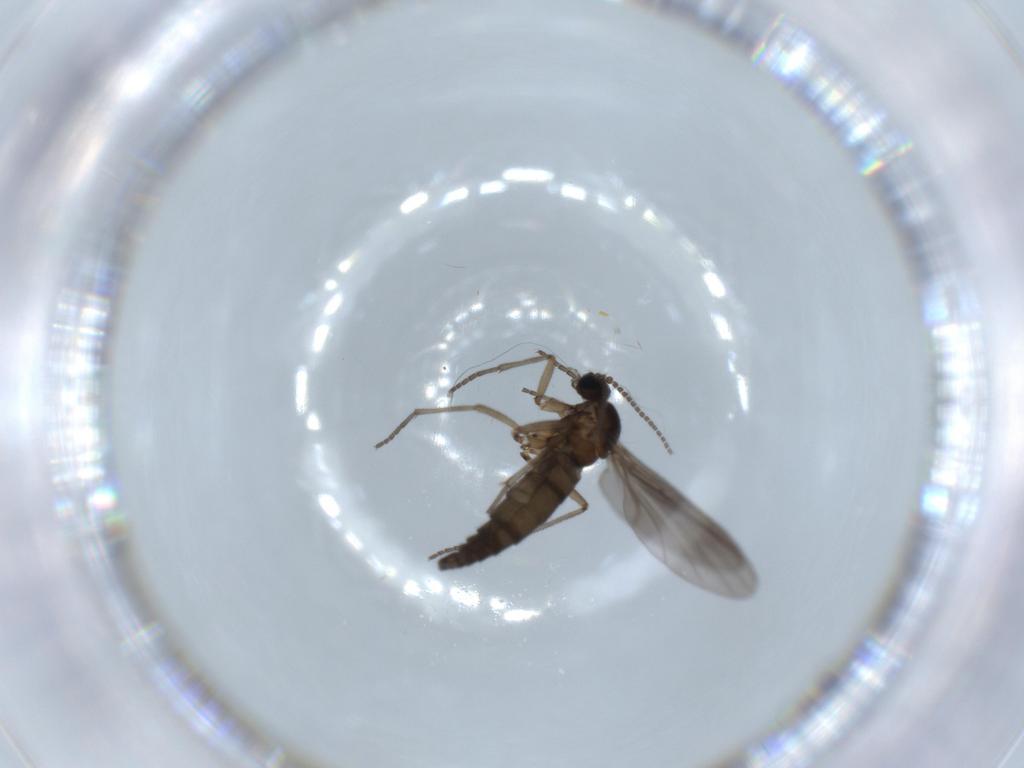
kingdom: Animalia
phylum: Arthropoda
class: Insecta
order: Diptera
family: Sciaridae
